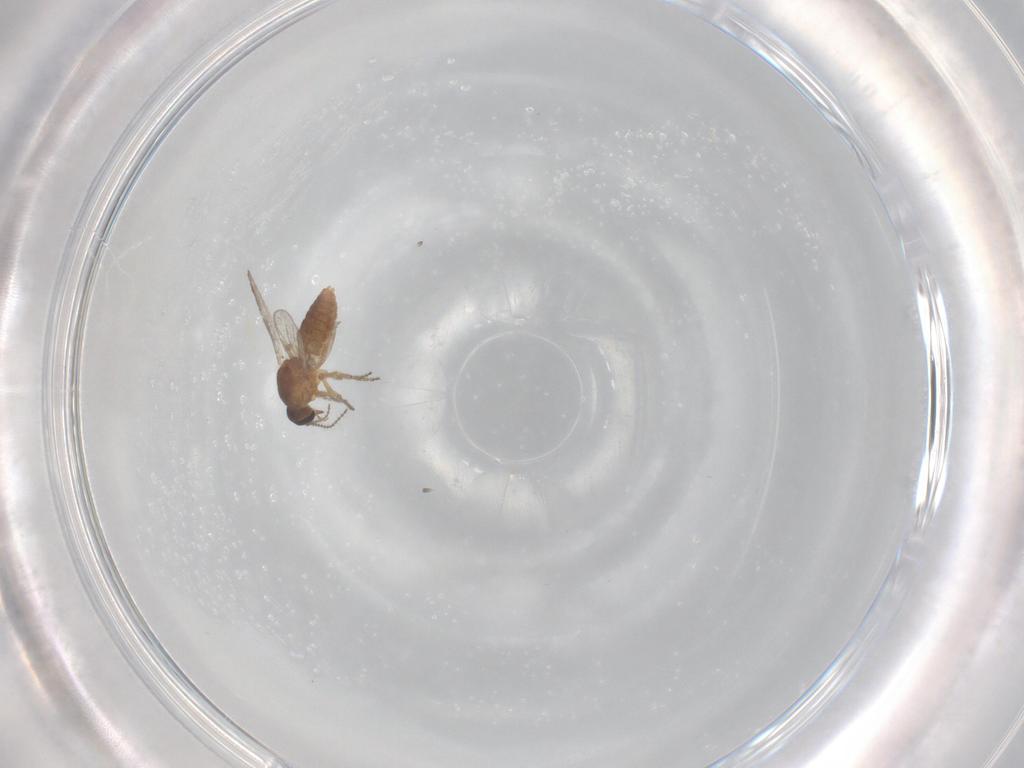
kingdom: Animalia
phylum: Arthropoda
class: Insecta
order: Diptera
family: Ceratopogonidae
